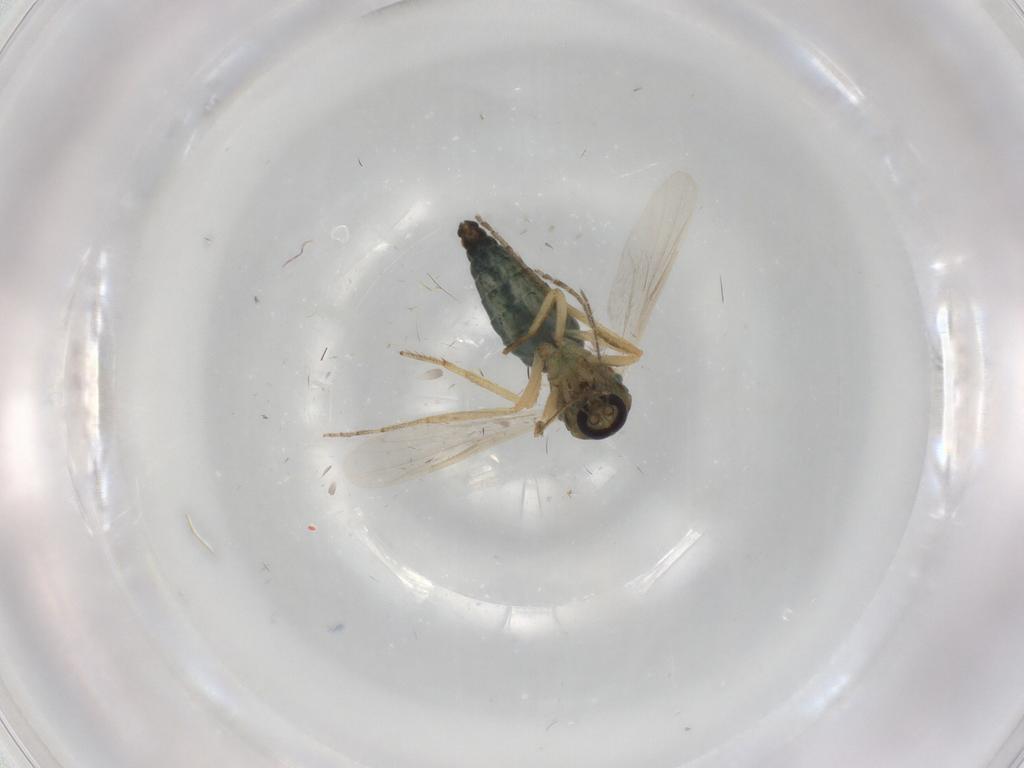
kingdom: Animalia
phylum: Arthropoda
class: Insecta
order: Diptera
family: Ceratopogonidae
